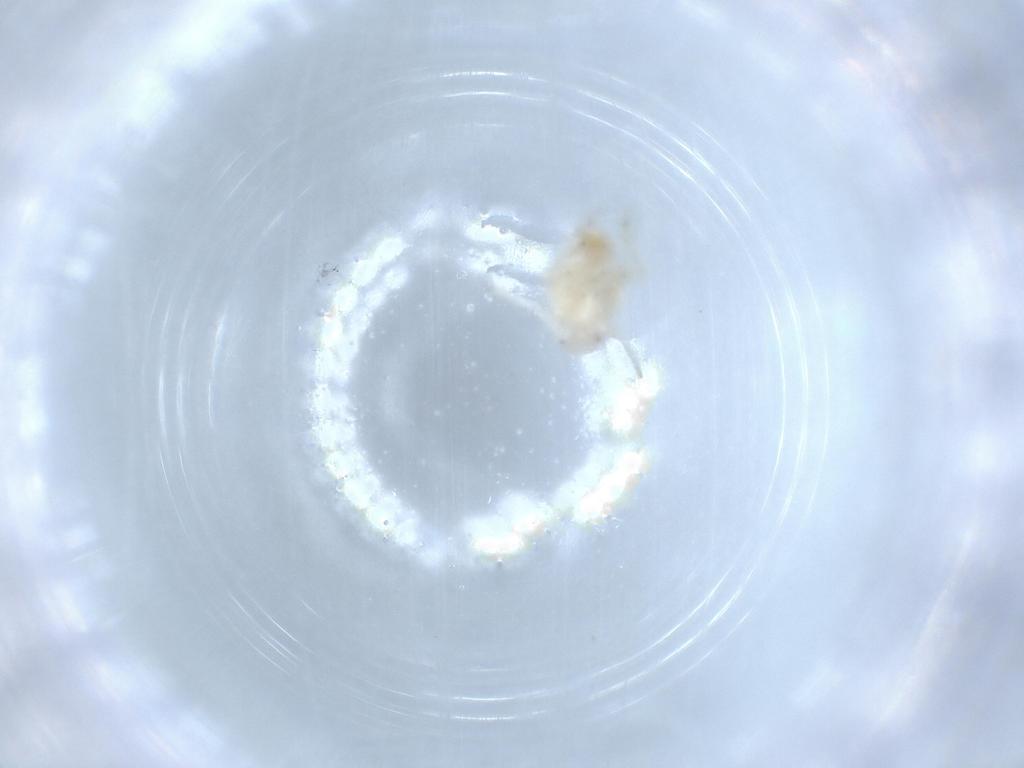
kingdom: Animalia
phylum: Arthropoda
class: Insecta
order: Hemiptera
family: Flatidae
